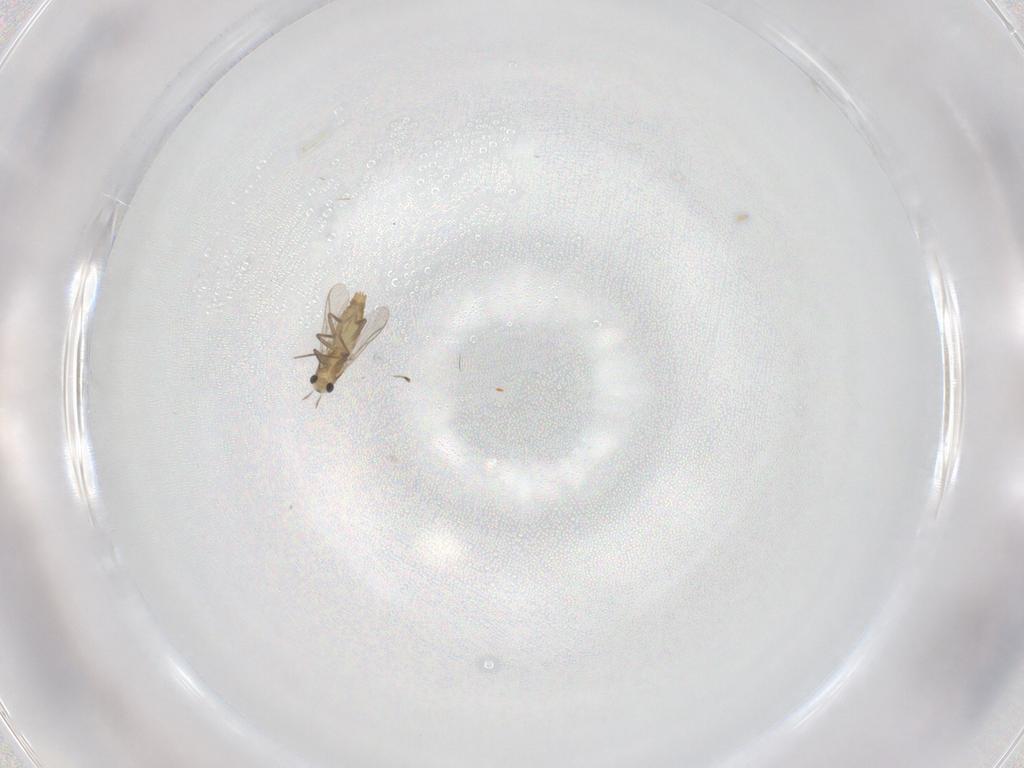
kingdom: Animalia
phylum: Arthropoda
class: Insecta
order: Diptera
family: Chironomidae
